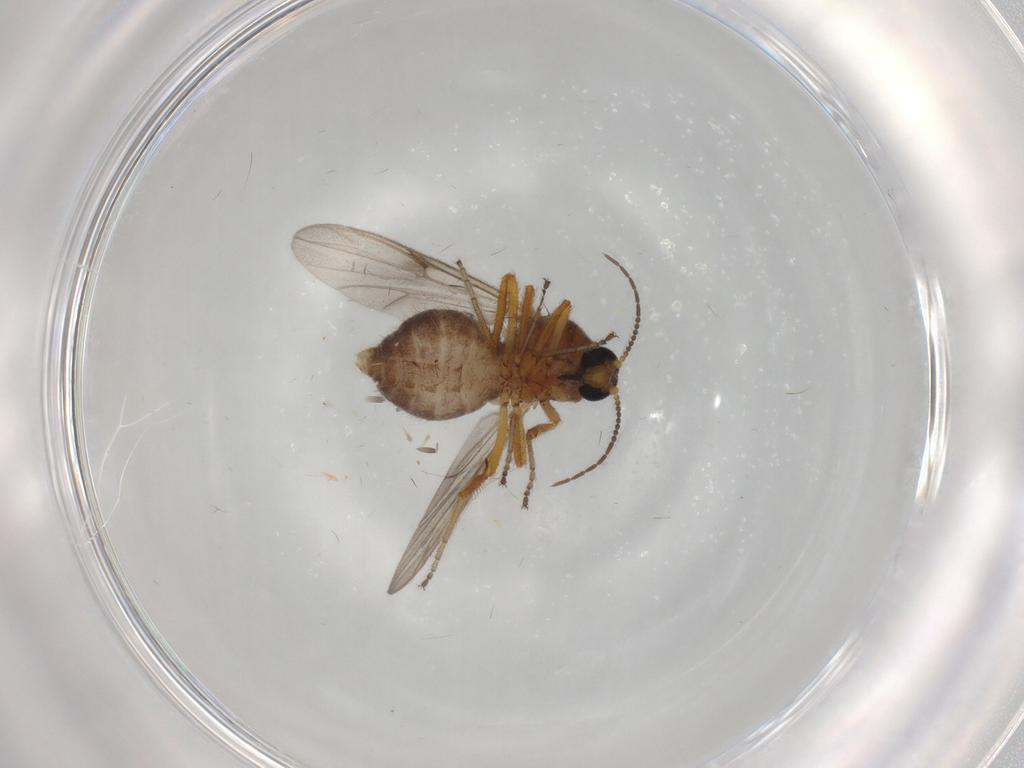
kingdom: Animalia
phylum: Arthropoda
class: Insecta
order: Diptera
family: Ceratopogonidae
